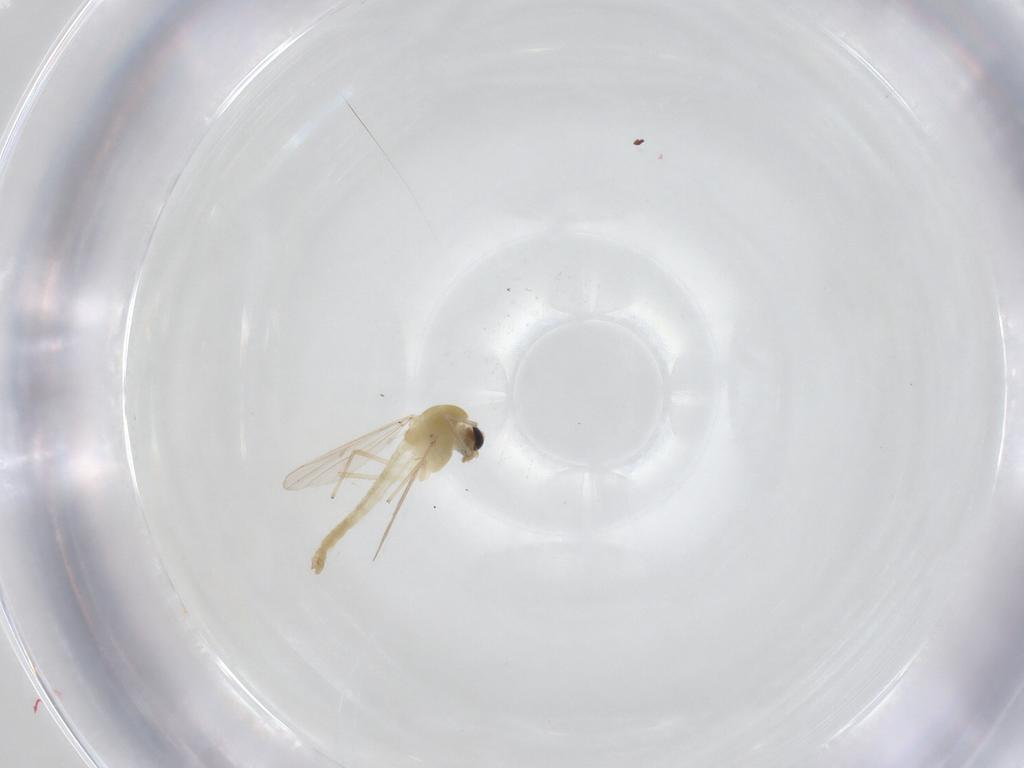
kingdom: Animalia
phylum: Arthropoda
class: Insecta
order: Diptera
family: Chironomidae
